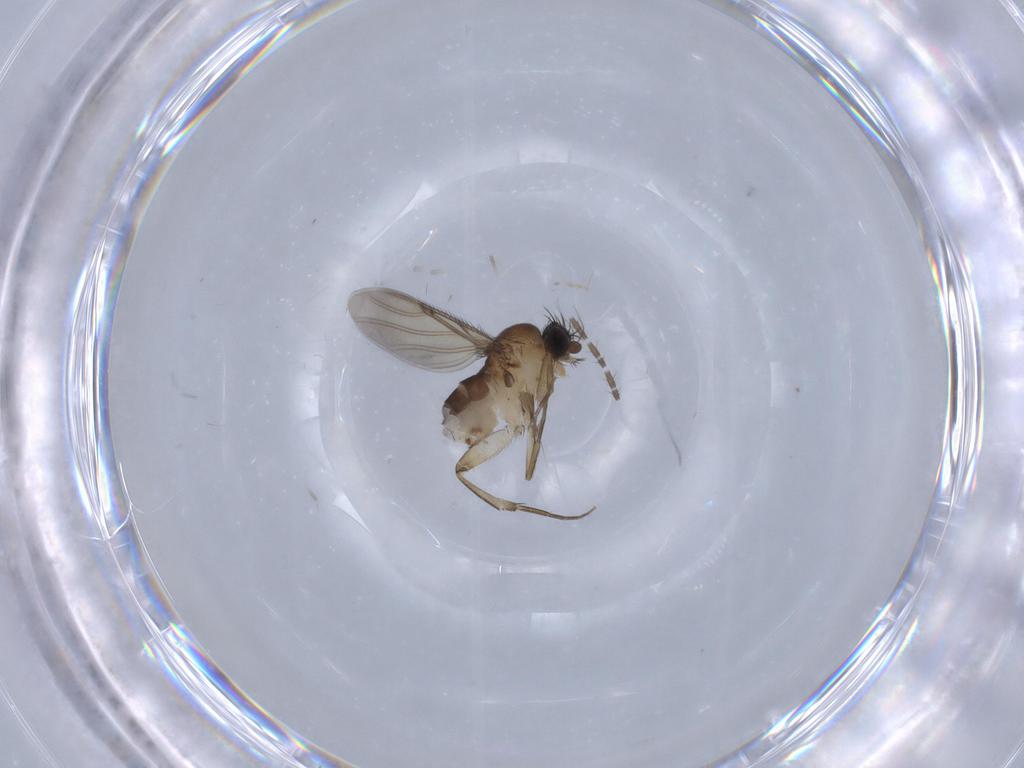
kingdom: Animalia
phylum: Arthropoda
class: Insecta
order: Diptera
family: Phoridae
